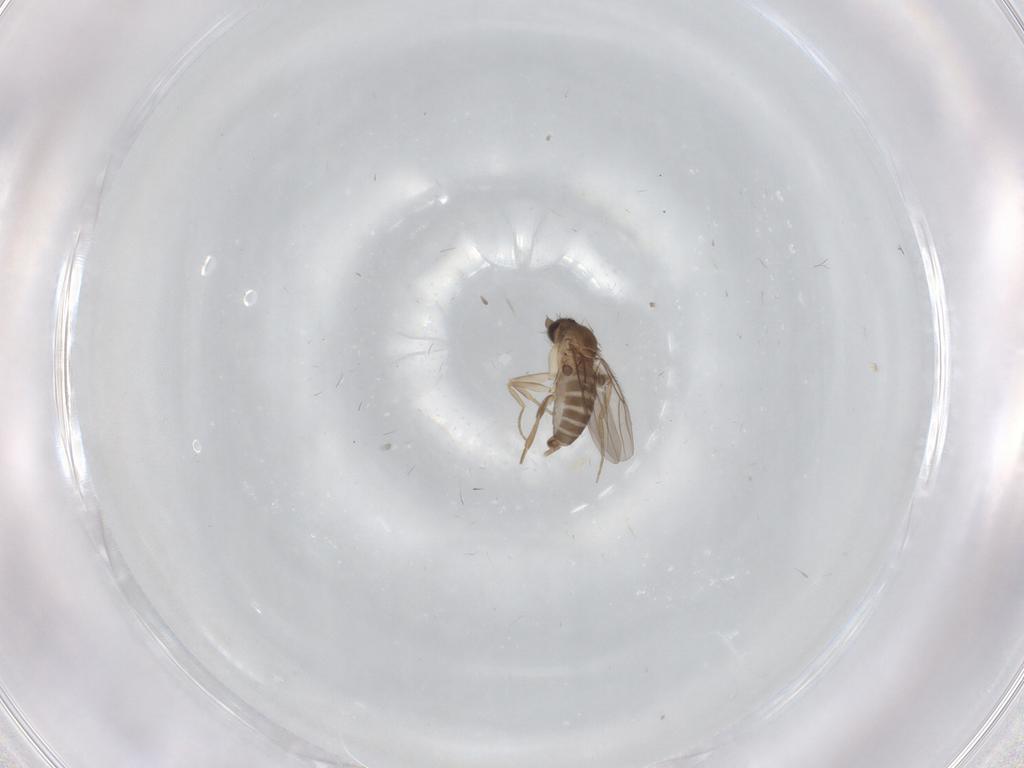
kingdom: Animalia
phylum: Arthropoda
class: Insecta
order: Diptera
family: Phoridae
